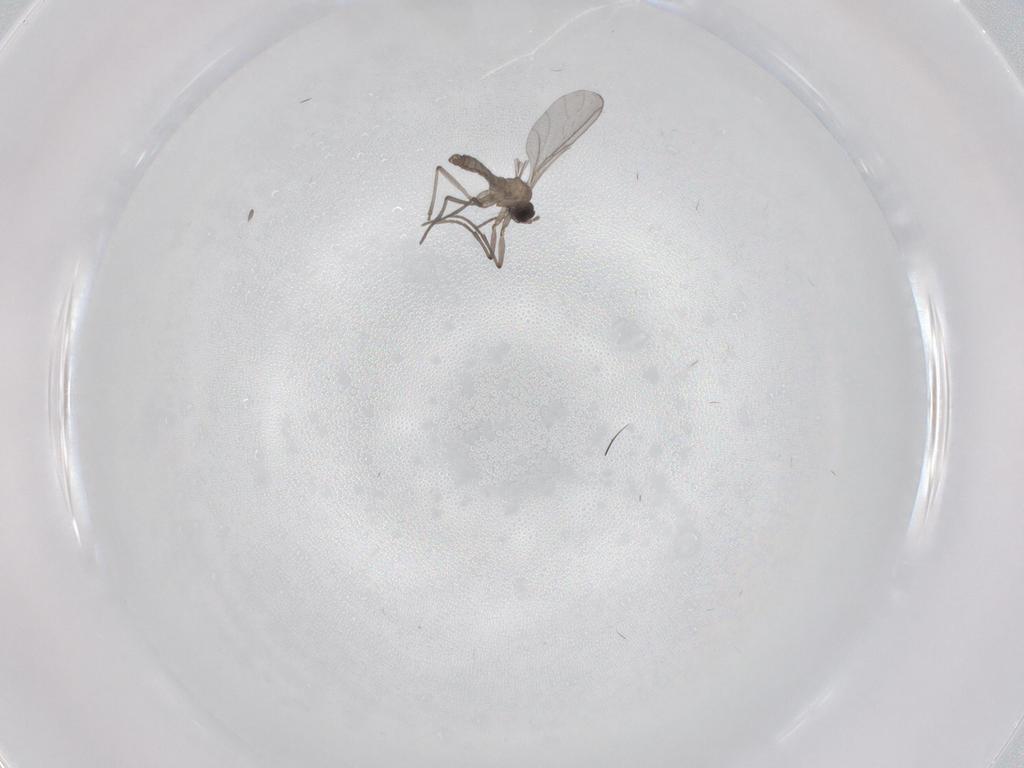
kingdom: Animalia
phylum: Arthropoda
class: Insecta
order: Diptera
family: Sciaridae
